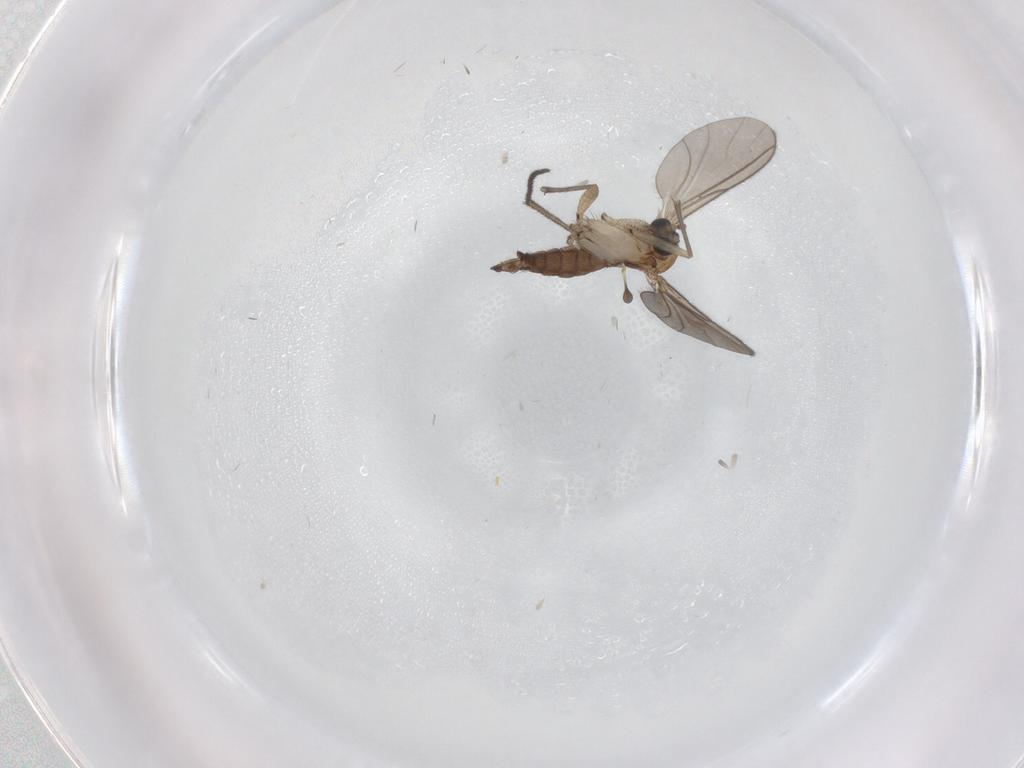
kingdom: Animalia
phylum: Arthropoda
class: Insecta
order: Diptera
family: Sciaridae
